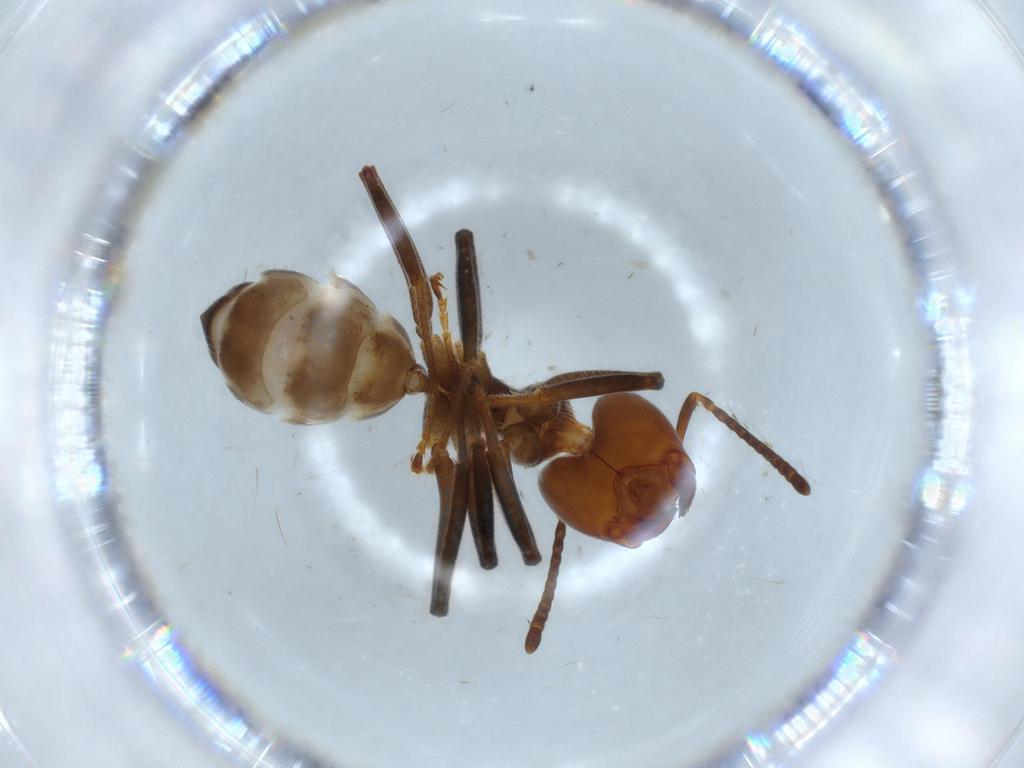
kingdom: Animalia
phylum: Arthropoda
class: Insecta
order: Hymenoptera
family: Formicidae
